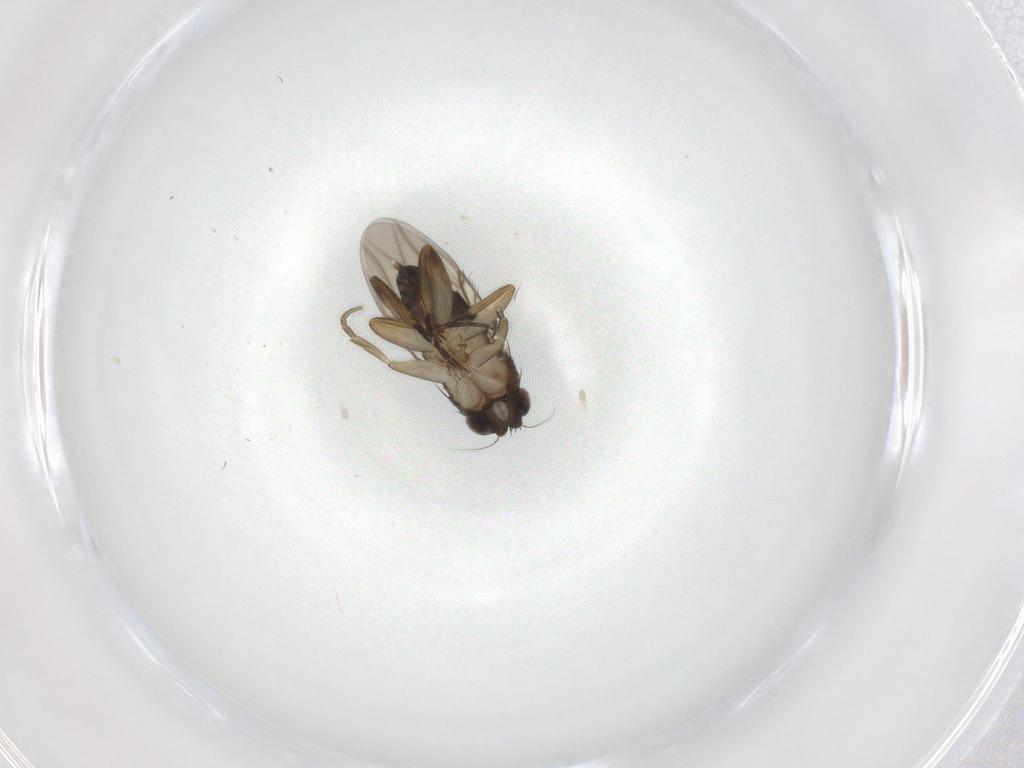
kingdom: Animalia
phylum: Arthropoda
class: Insecta
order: Diptera
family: Phoridae
